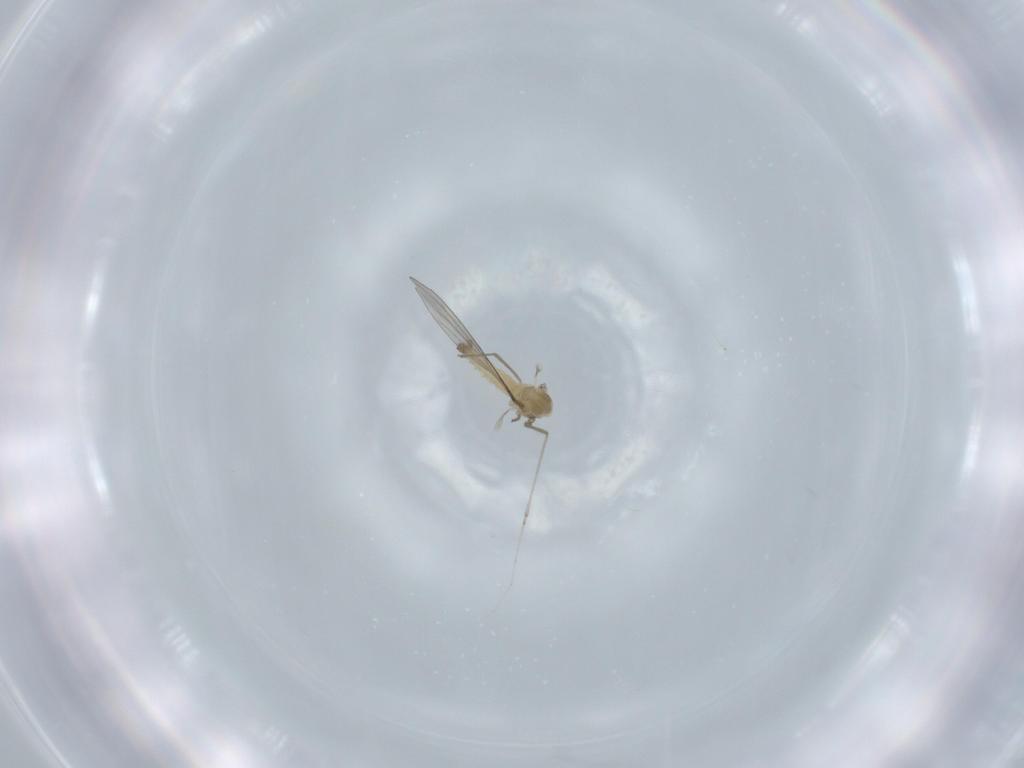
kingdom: Animalia
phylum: Arthropoda
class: Insecta
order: Diptera
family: Cecidomyiidae
